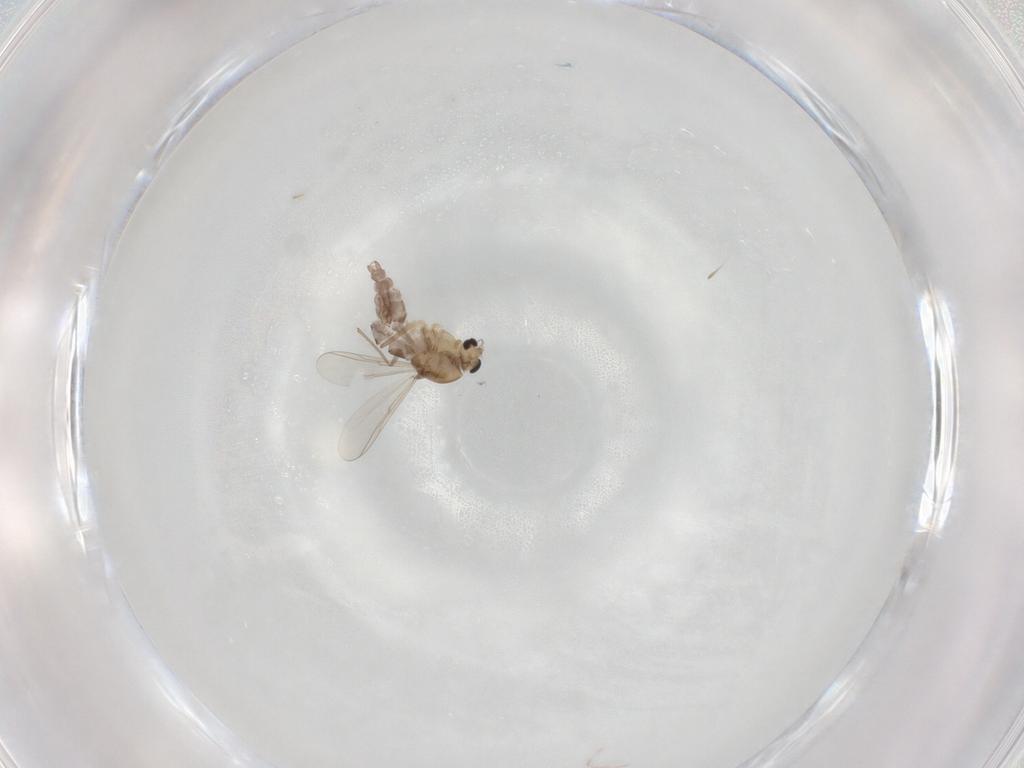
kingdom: Animalia
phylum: Arthropoda
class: Insecta
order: Diptera
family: Chironomidae
